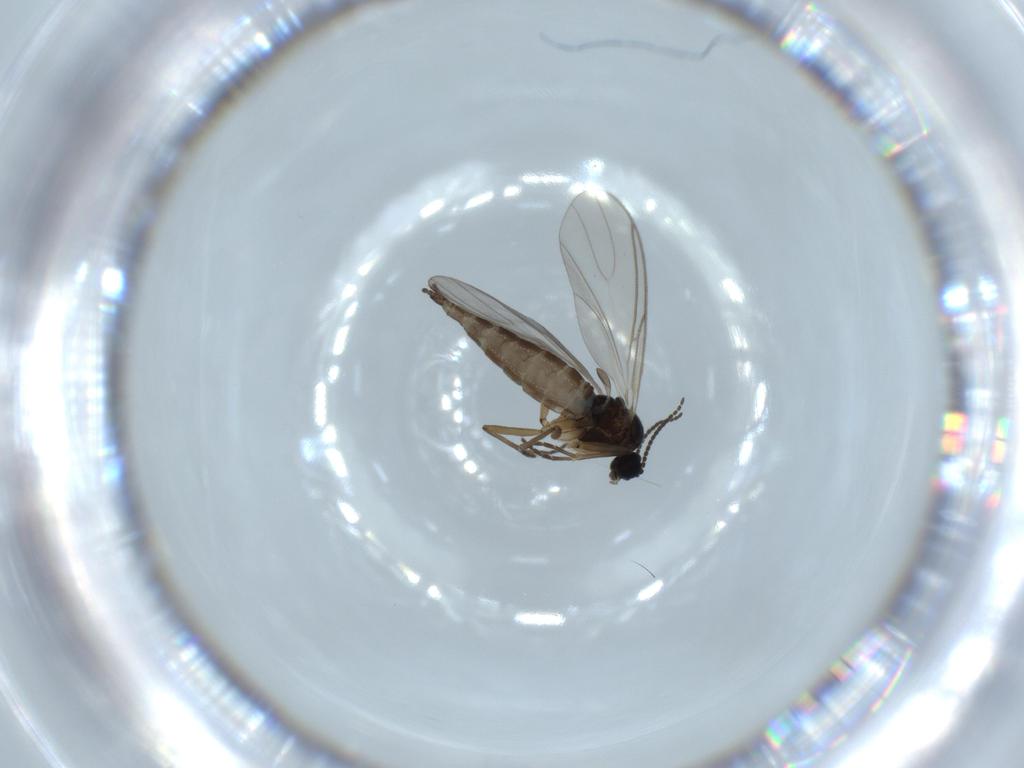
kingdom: Animalia
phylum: Arthropoda
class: Insecta
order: Diptera
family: Sciaridae
